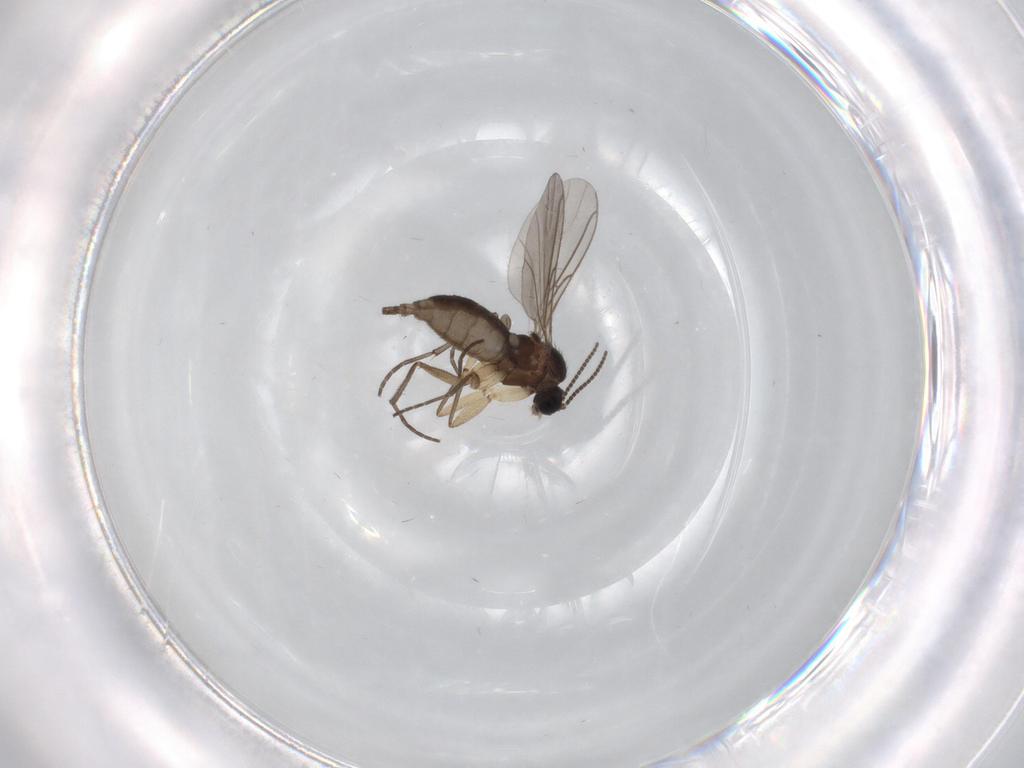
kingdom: Animalia
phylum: Arthropoda
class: Insecta
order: Diptera
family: Sciaridae
